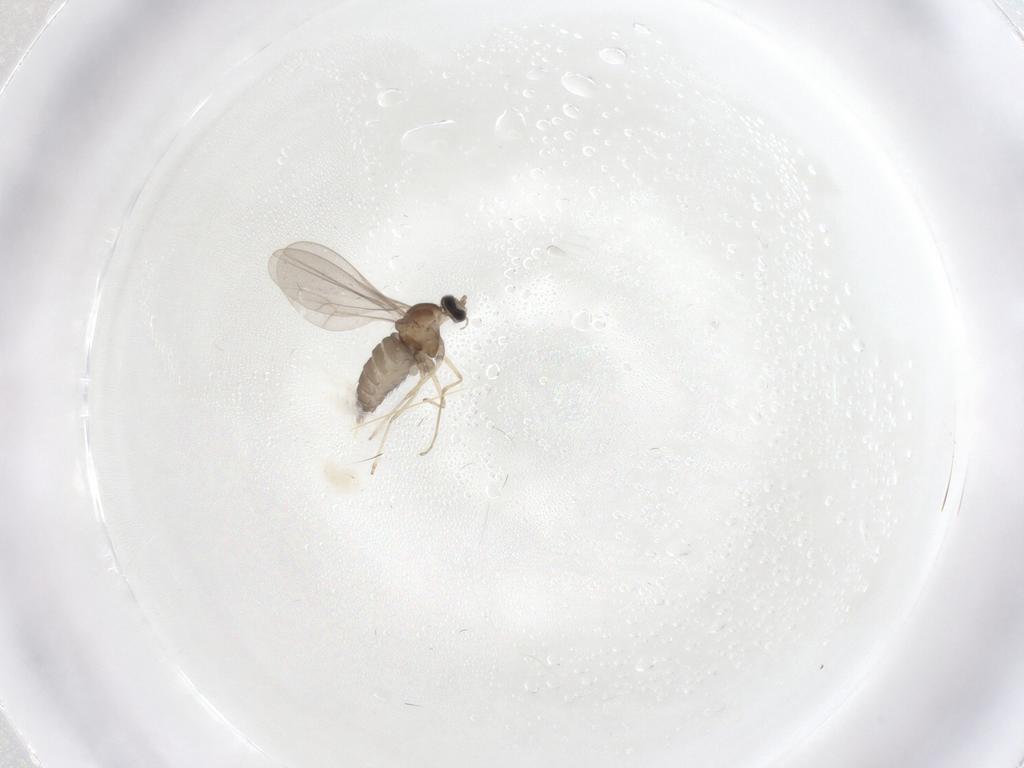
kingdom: Animalia
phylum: Arthropoda
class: Insecta
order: Diptera
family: Cecidomyiidae
